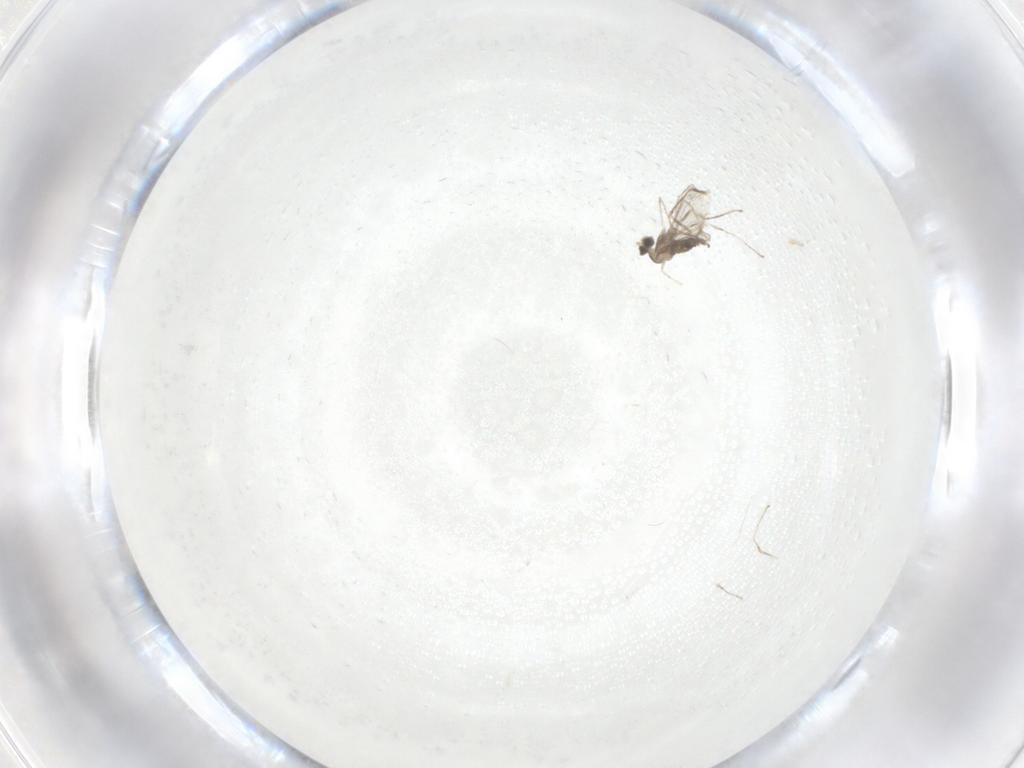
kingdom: Animalia
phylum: Arthropoda
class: Insecta
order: Diptera
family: Cecidomyiidae
